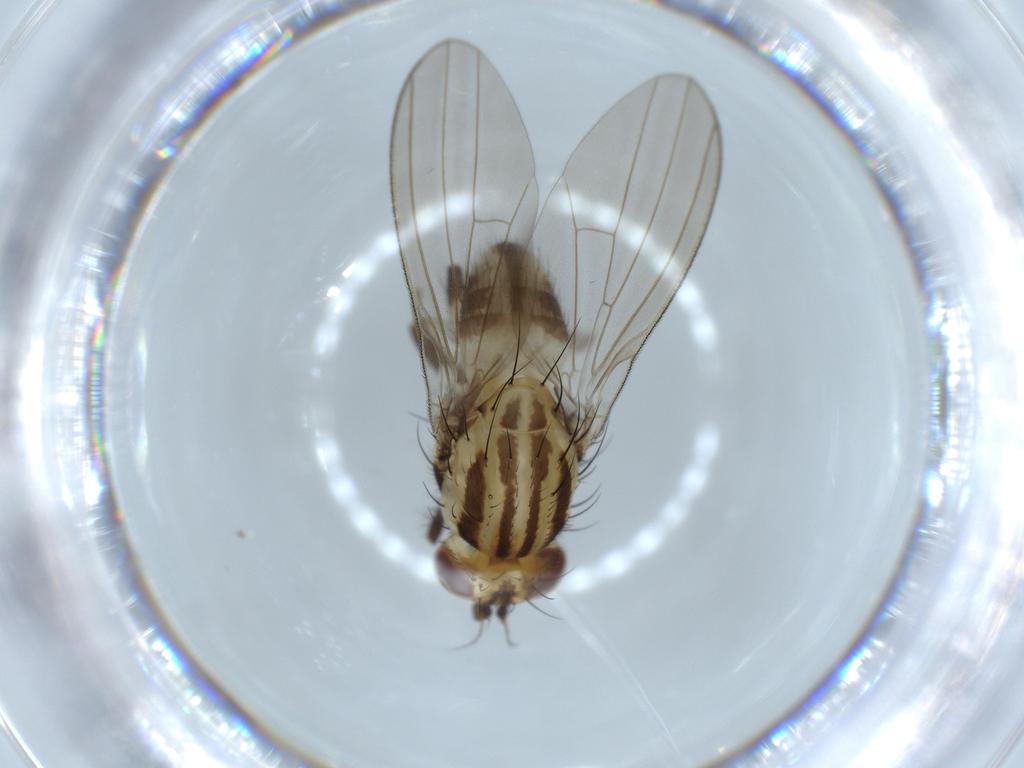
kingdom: Animalia
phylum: Arthropoda
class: Insecta
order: Diptera
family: Lauxaniidae
